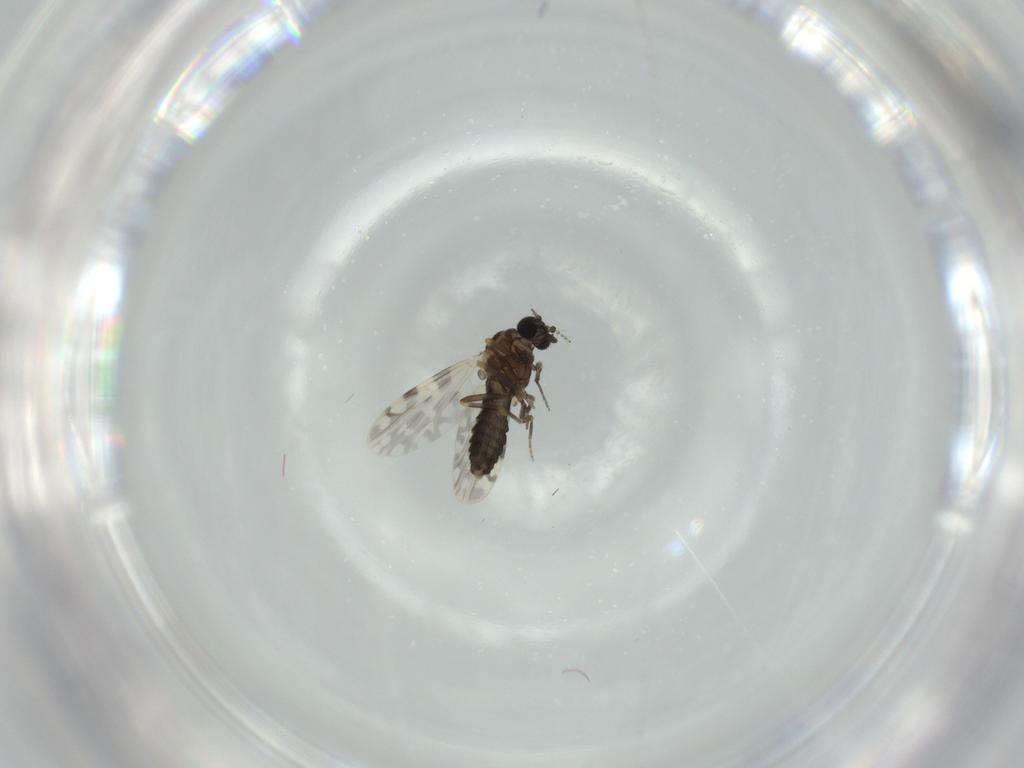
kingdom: Animalia
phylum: Arthropoda
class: Insecta
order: Diptera
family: Ceratopogonidae
